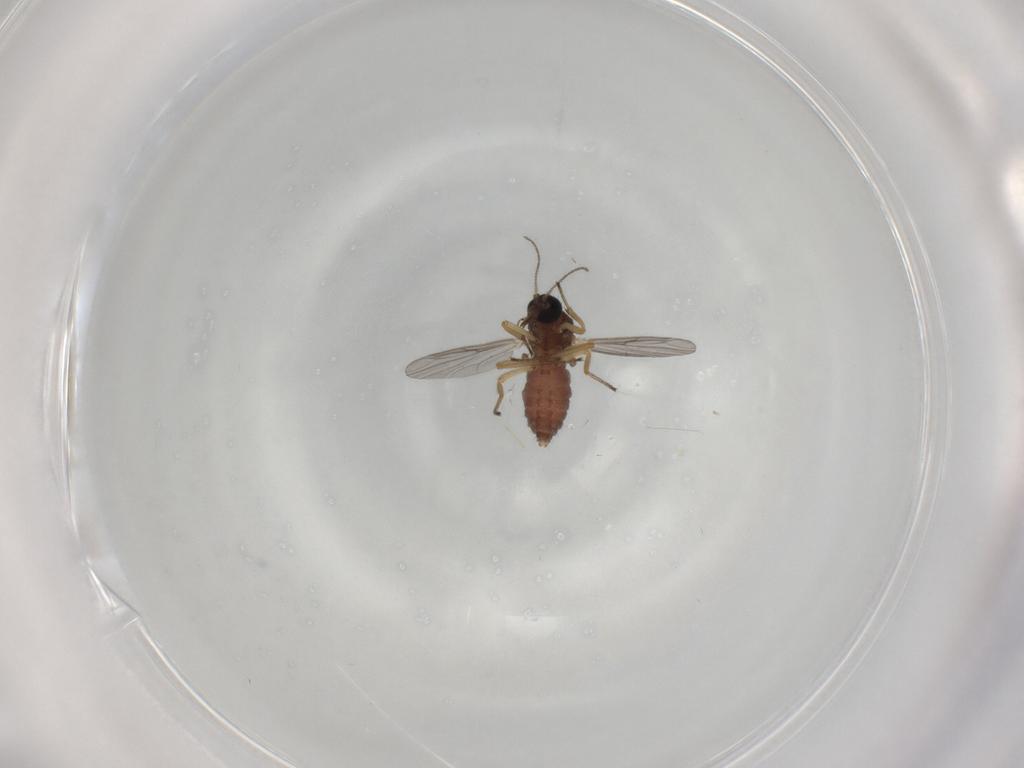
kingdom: Animalia
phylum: Arthropoda
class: Insecta
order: Diptera
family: Ceratopogonidae
